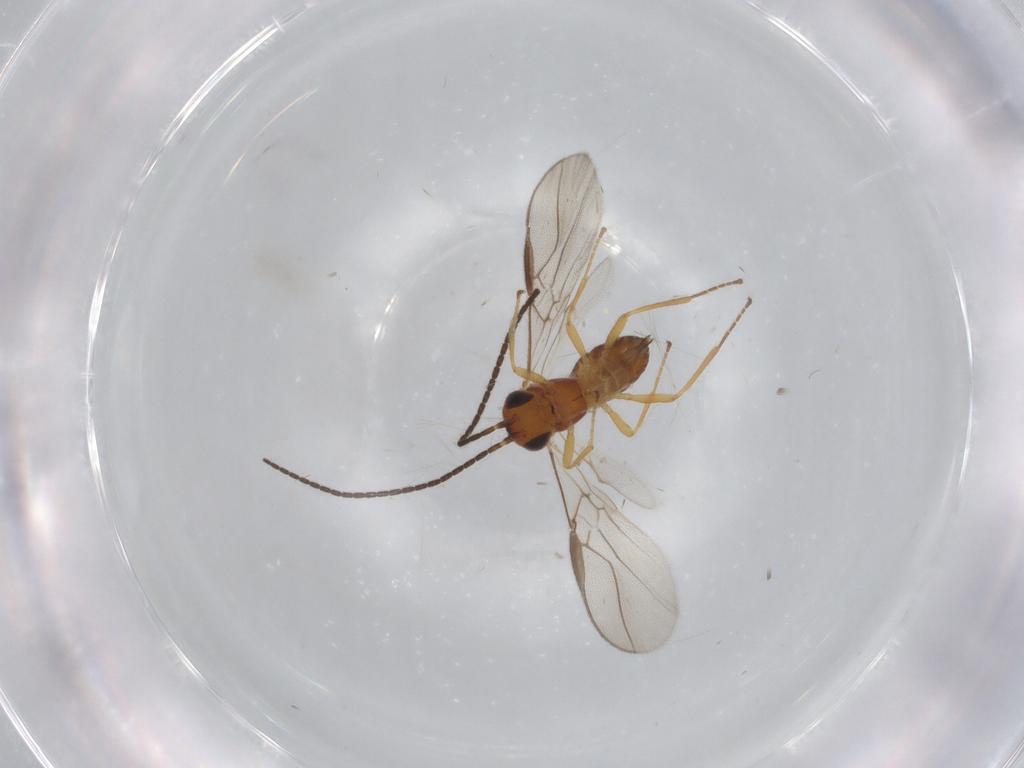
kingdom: Animalia
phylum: Arthropoda
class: Insecta
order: Hymenoptera
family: Braconidae
